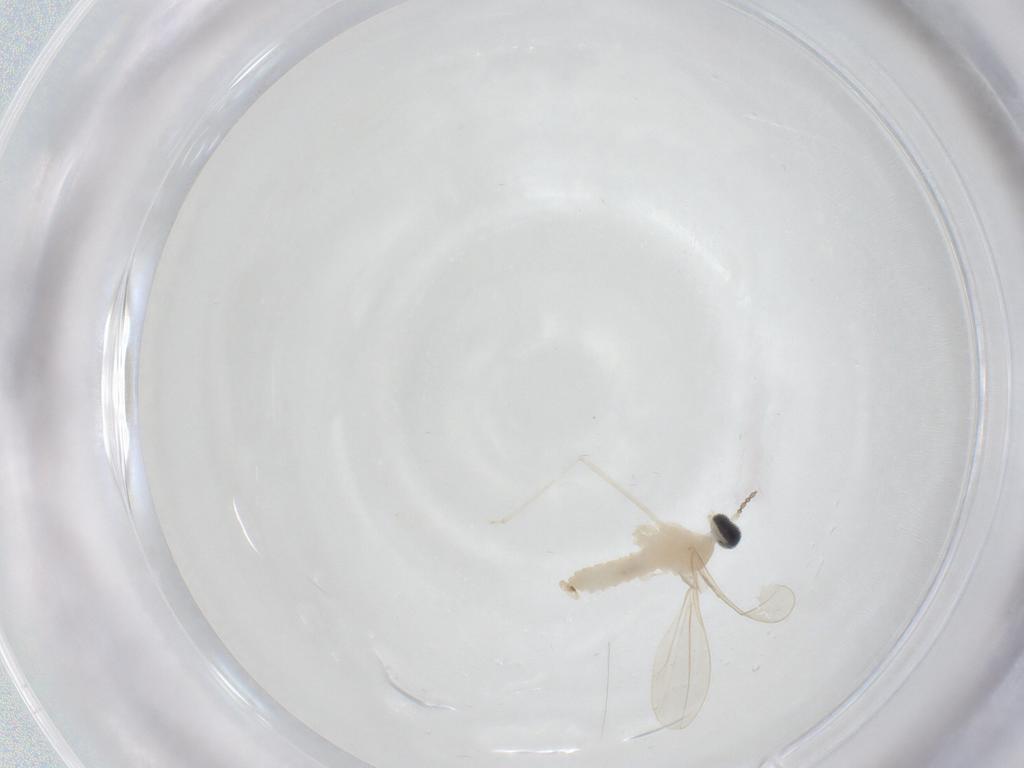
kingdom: Animalia
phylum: Arthropoda
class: Insecta
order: Diptera
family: Cecidomyiidae
